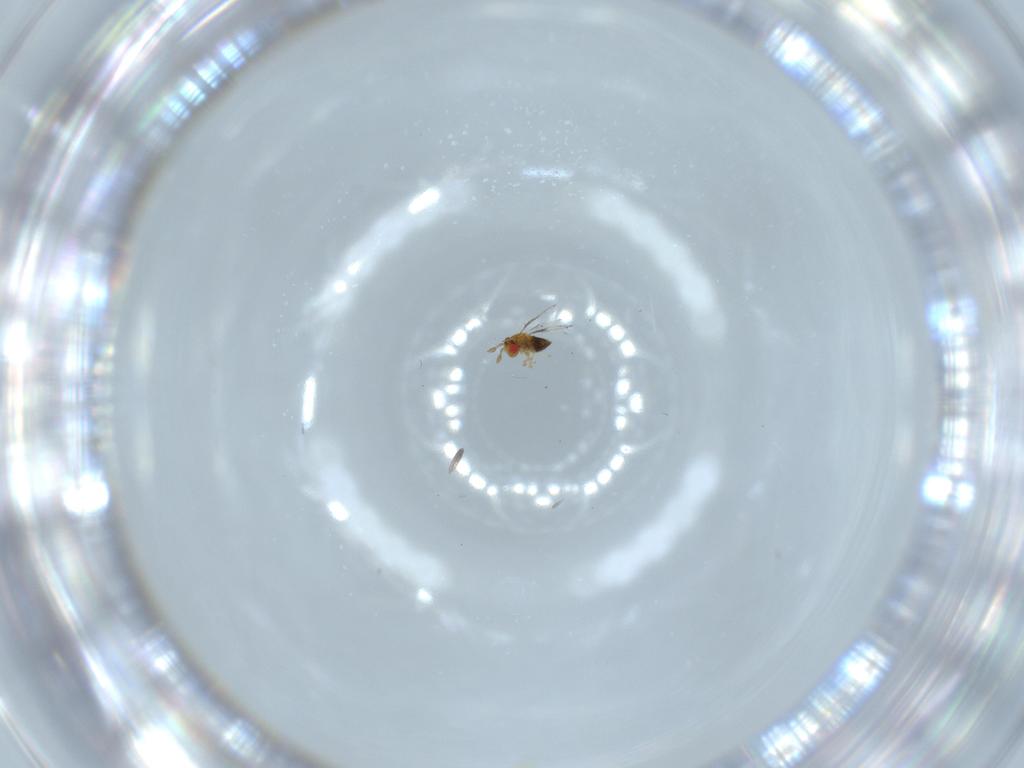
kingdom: Animalia
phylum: Arthropoda
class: Insecta
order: Hymenoptera
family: Trichogrammatidae
